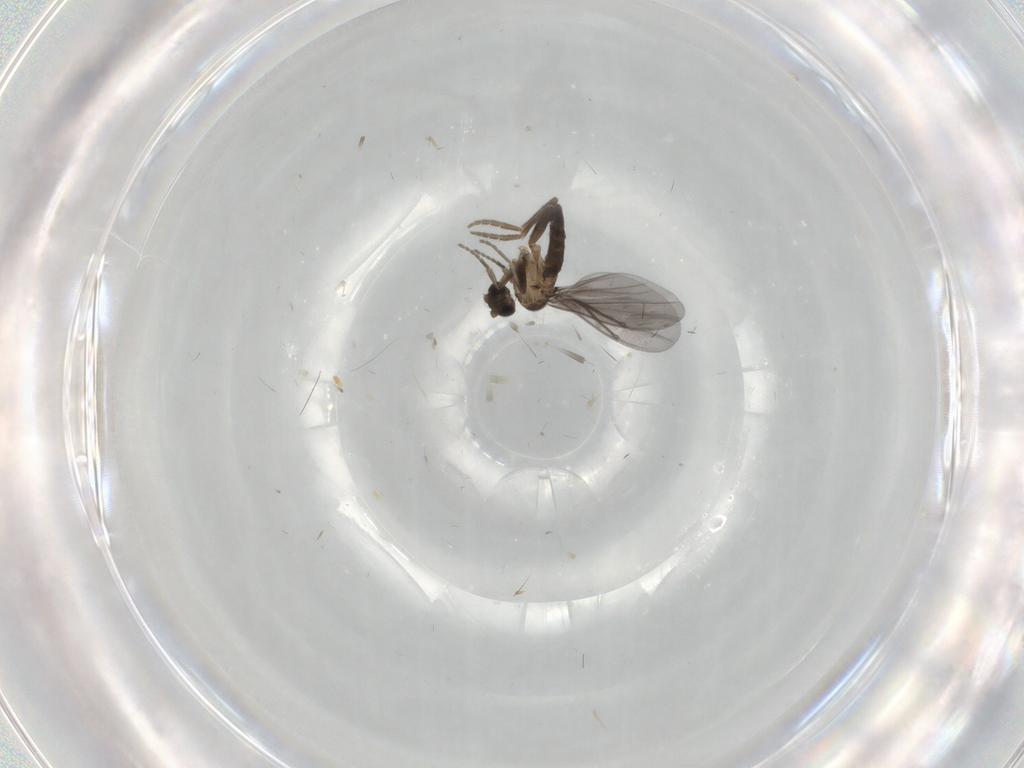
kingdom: Animalia
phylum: Arthropoda
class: Insecta
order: Diptera
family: Phoridae
